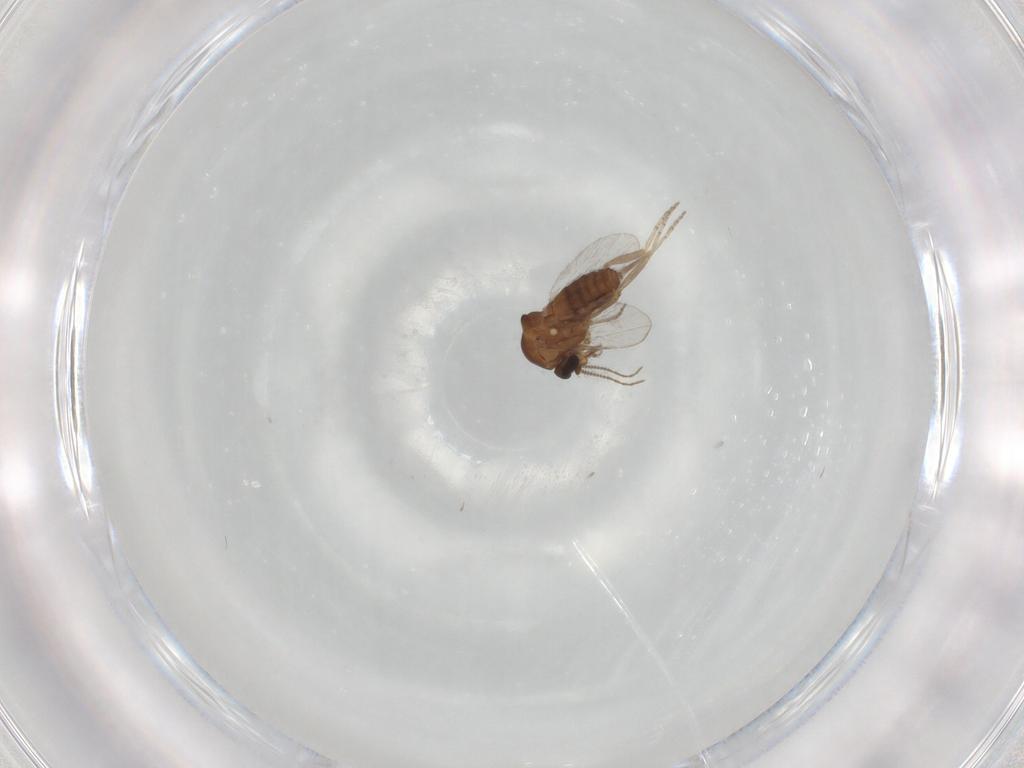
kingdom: Animalia
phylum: Arthropoda
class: Insecta
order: Diptera
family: Ceratopogonidae
